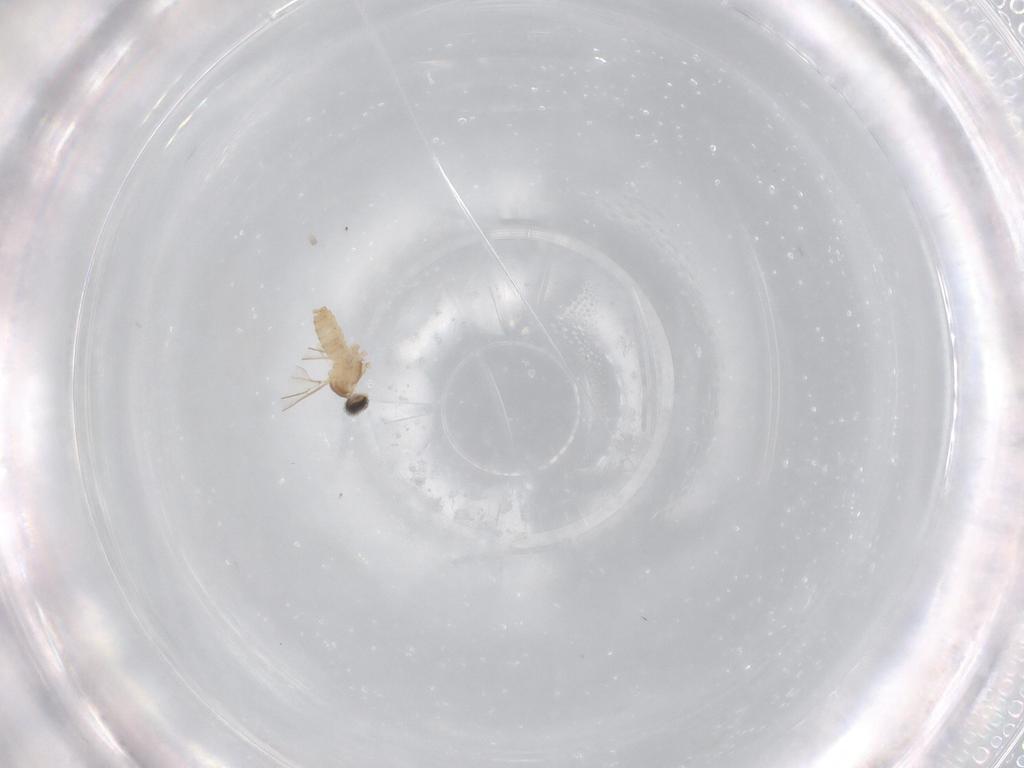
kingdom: Animalia
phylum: Arthropoda
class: Insecta
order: Diptera
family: Cecidomyiidae
